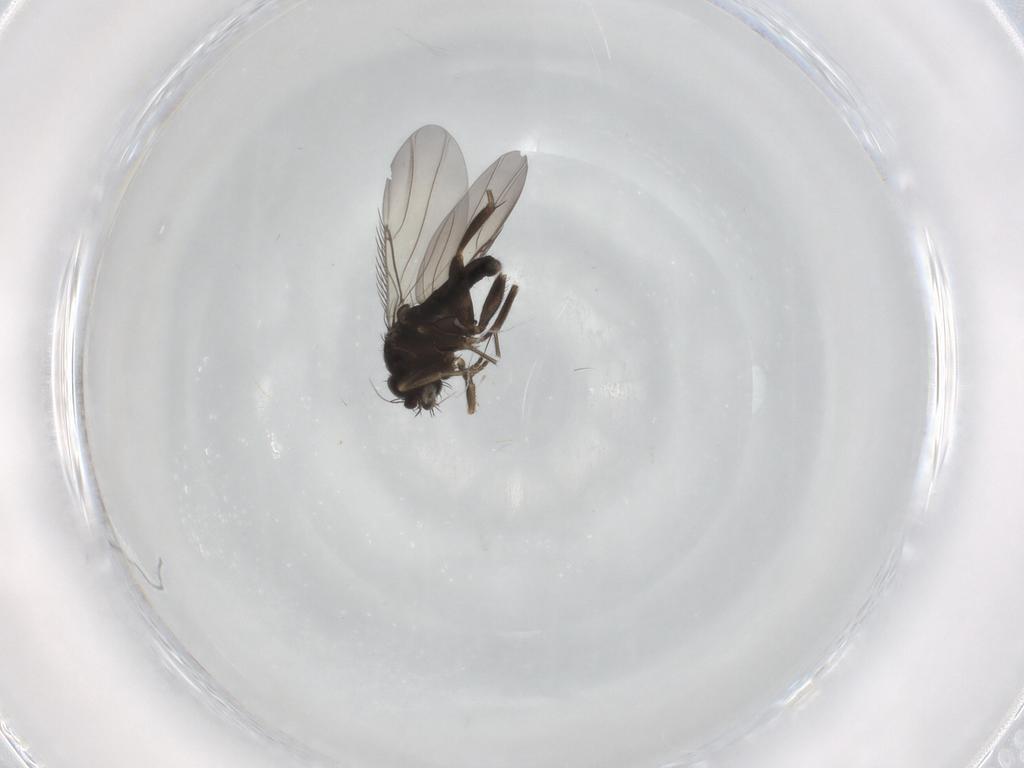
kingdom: Animalia
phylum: Arthropoda
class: Insecta
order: Diptera
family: Phoridae
